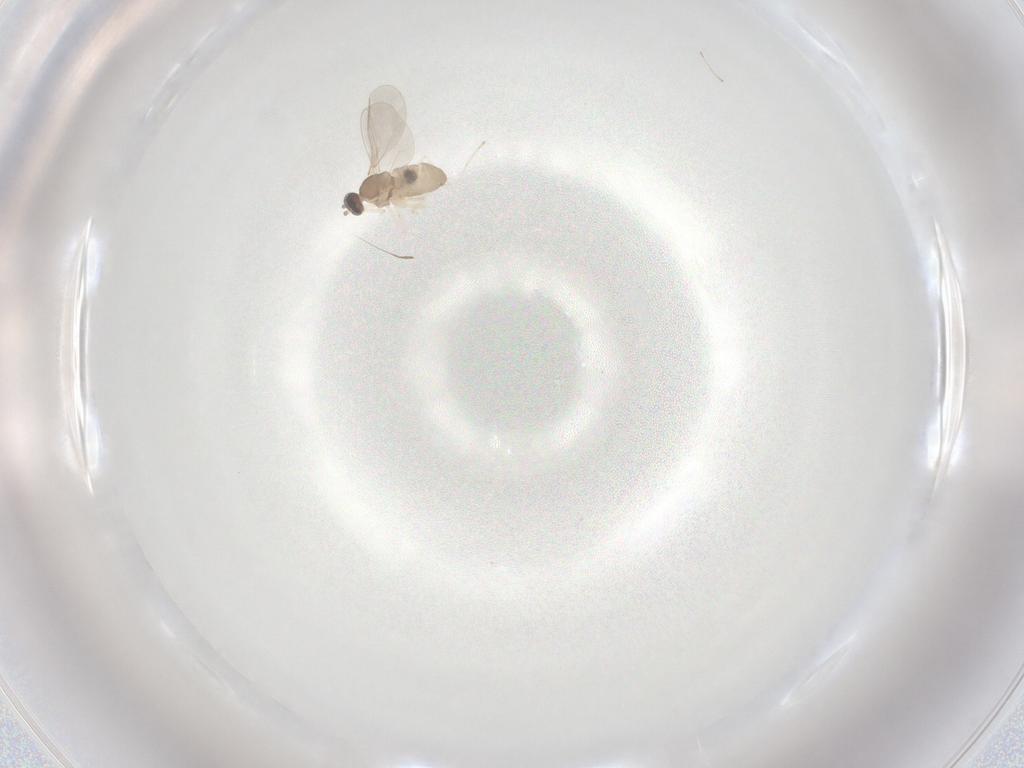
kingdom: Animalia
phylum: Arthropoda
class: Insecta
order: Diptera
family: Cecidomyiidae
